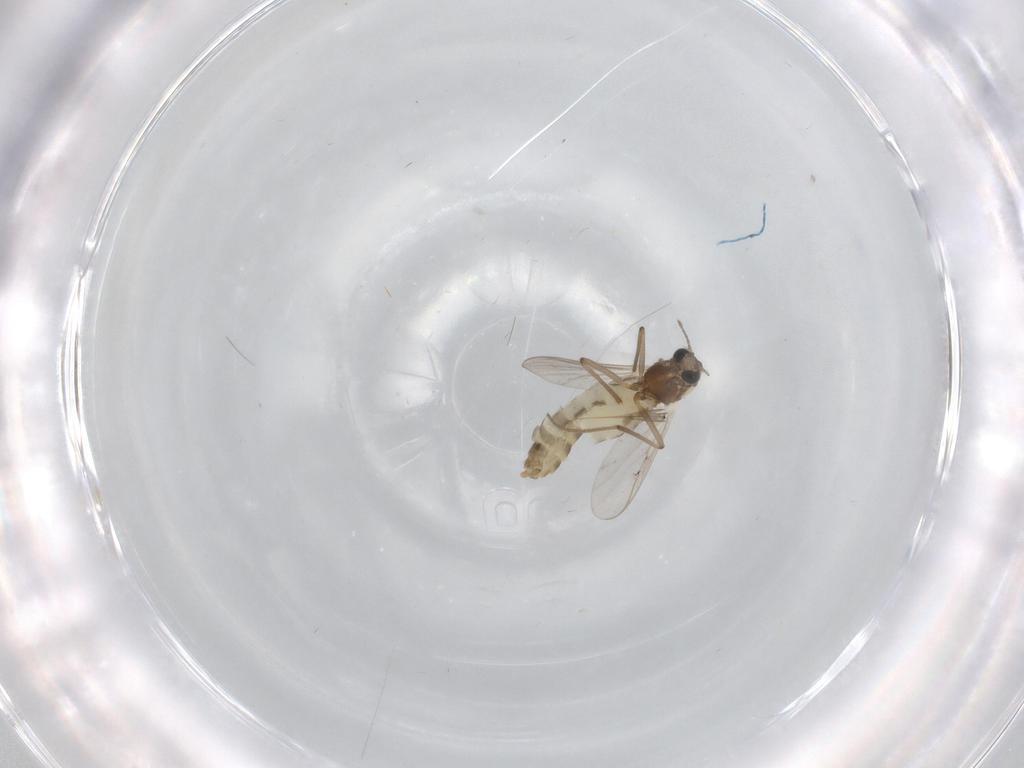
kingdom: Animalia
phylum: Arthropoda
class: Insecta
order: Diptera
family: Chironomidae
